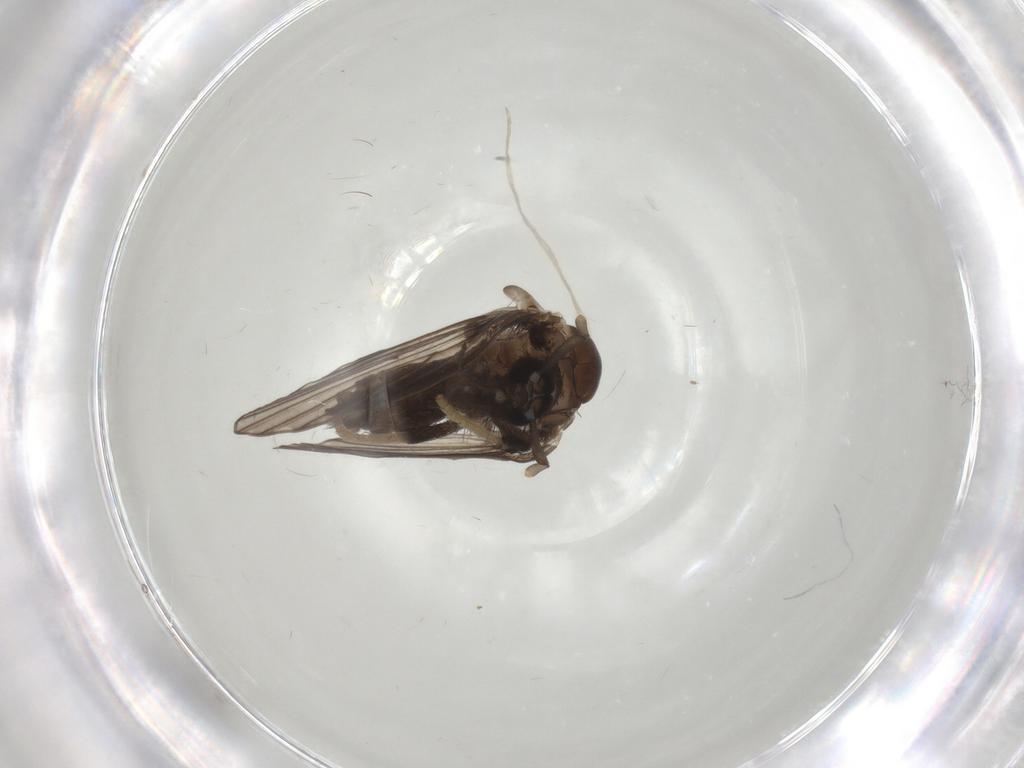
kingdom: Animalia
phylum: Arthropoda
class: Insecta
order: Diptera
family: Psychodidae
